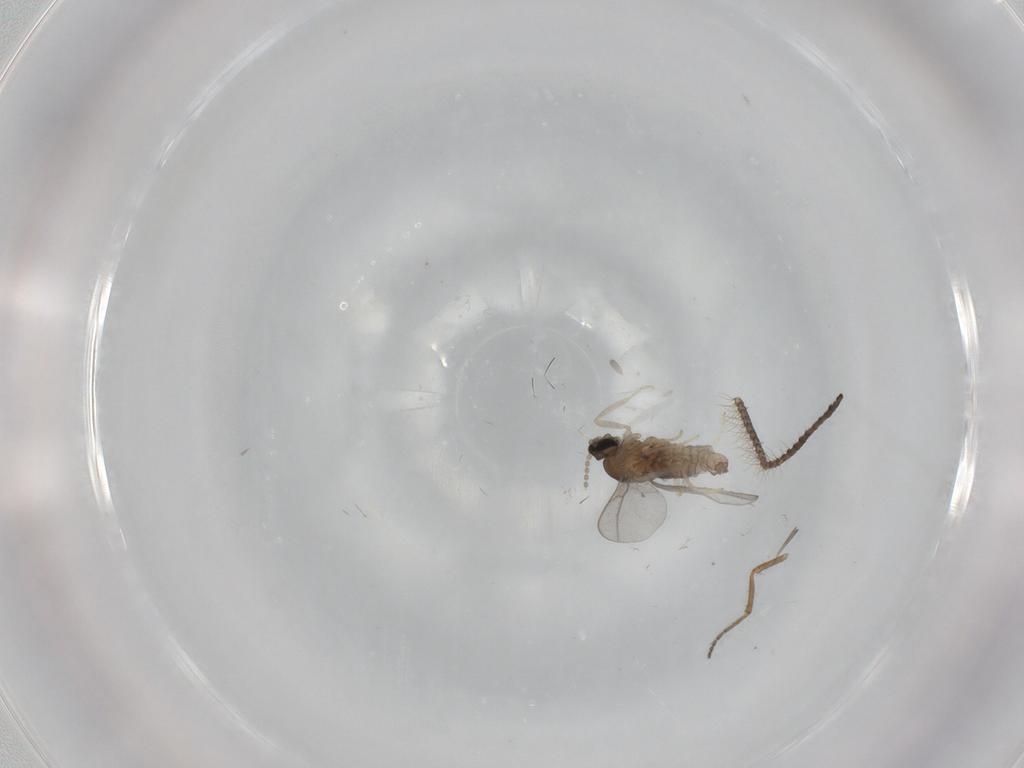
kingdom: Animalia
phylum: Arthropoda
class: Insecta
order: Diptera
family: Ceratopogonidae
